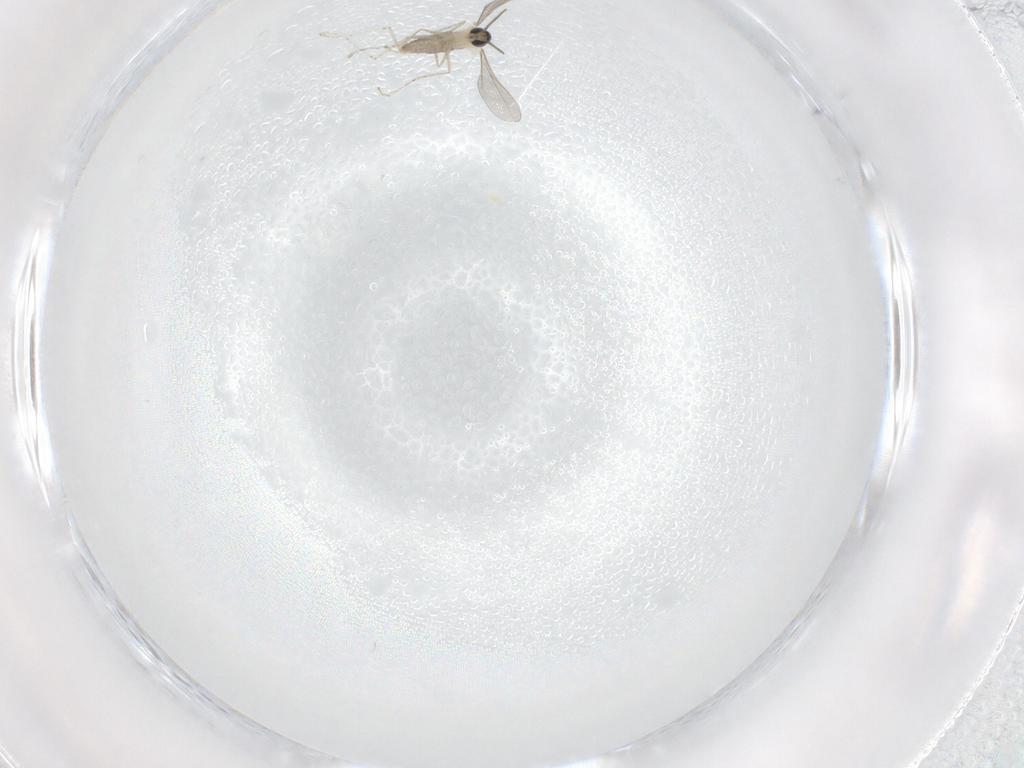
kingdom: Animalia
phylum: Arthropoda
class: Insecta
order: Diptera
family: Cecidomyiidae
